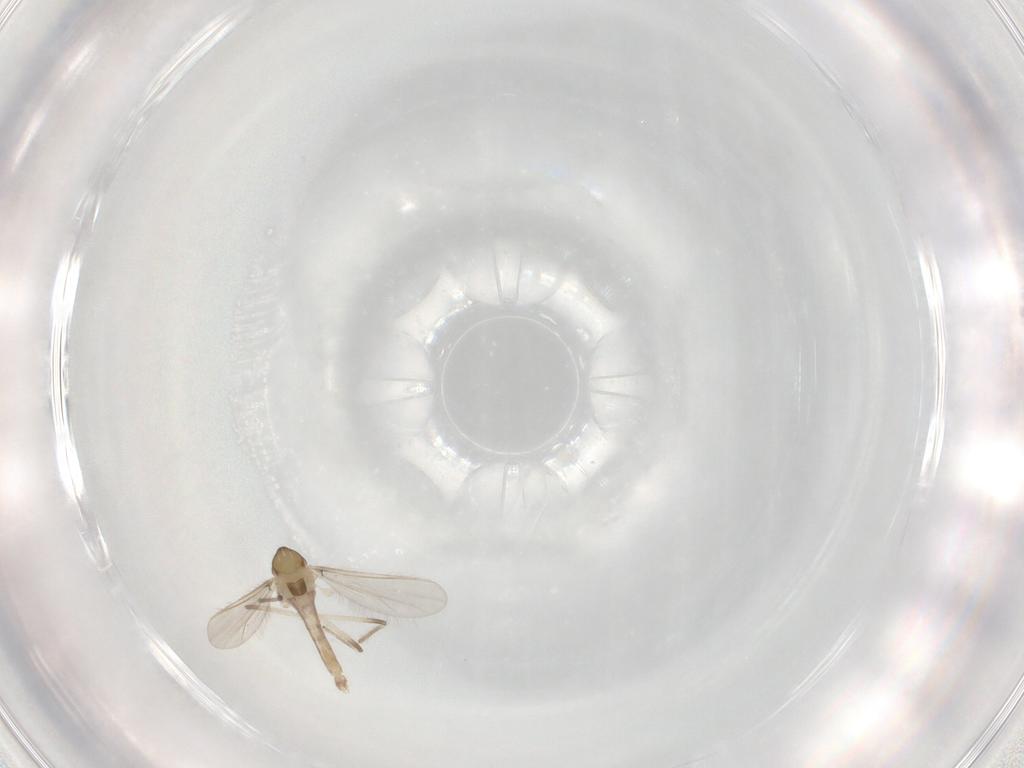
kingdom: Animalia
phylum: Arthropoda
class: Insecta
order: Diptera
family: Chironomidae
